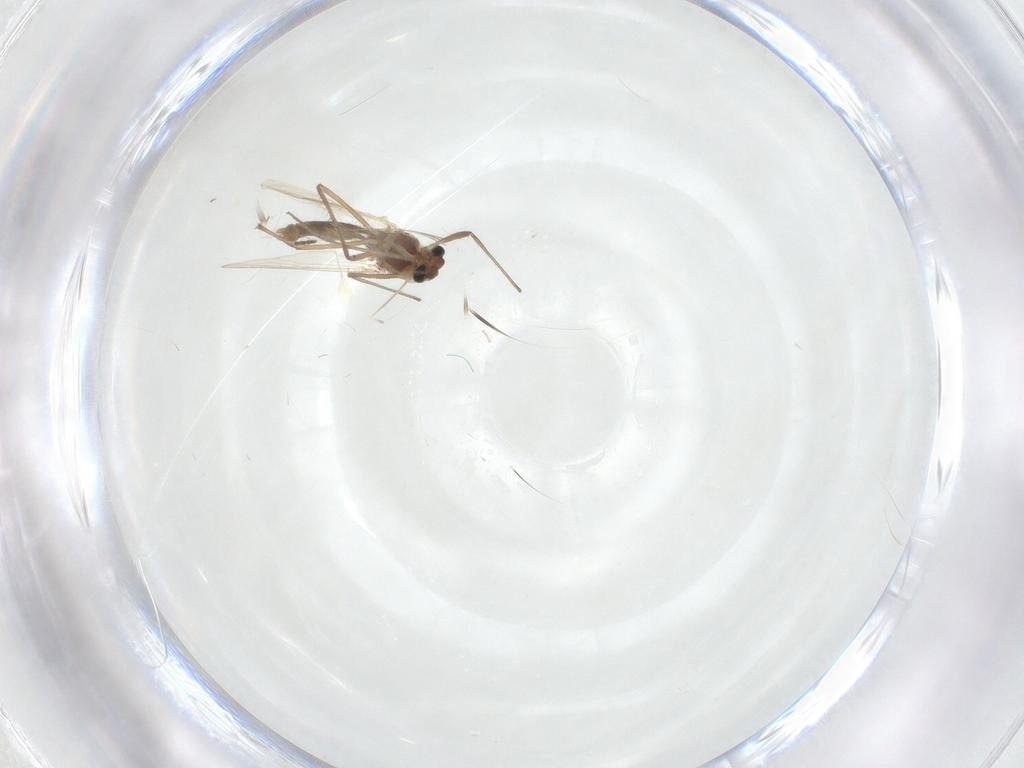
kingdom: Animalia
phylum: Arthropoda
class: Insecta
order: Diptera
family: Chironomidae
